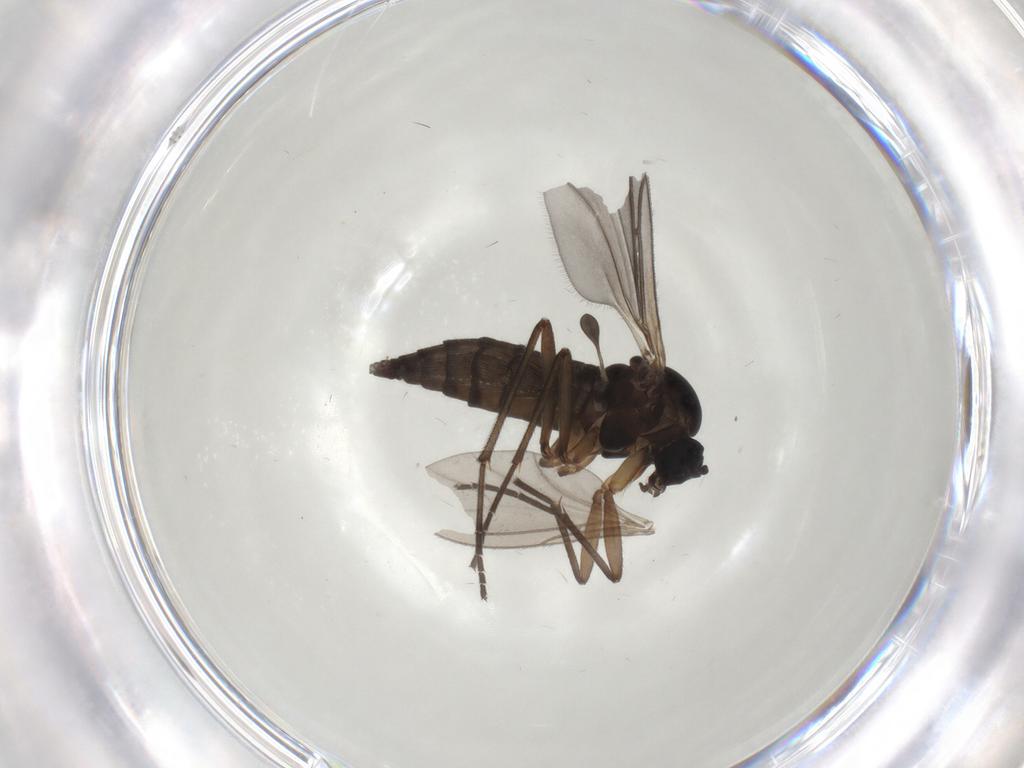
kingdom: Animalia
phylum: Arthropoda
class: Insecta
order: Diptera
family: Sciaridae
